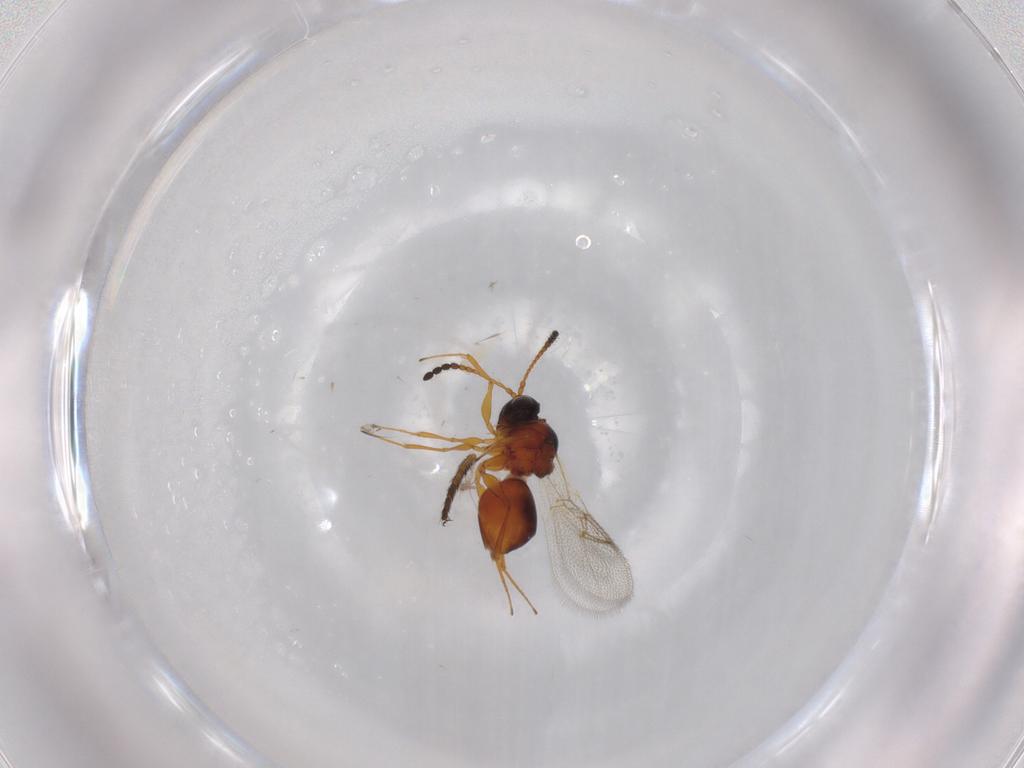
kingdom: Animalia
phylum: Arthropoda
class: Insecta
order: Hymenoptera
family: Figitidae
